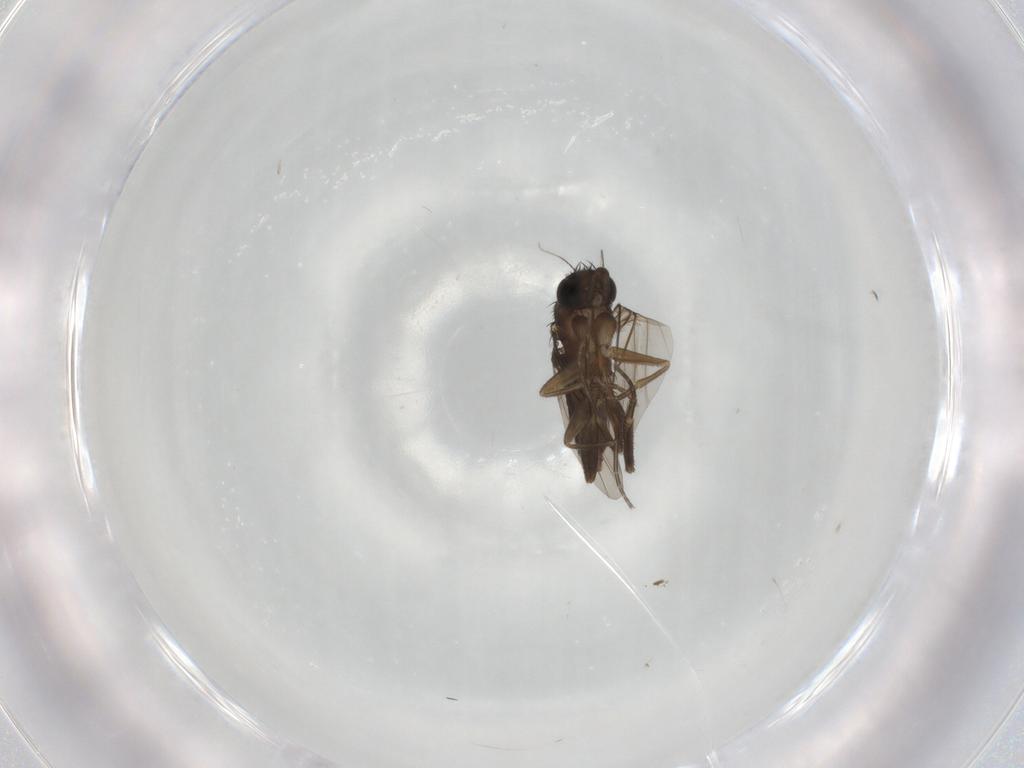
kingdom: Animalia
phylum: Arthropoda
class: Insecta
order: Diptera
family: Phoridae
